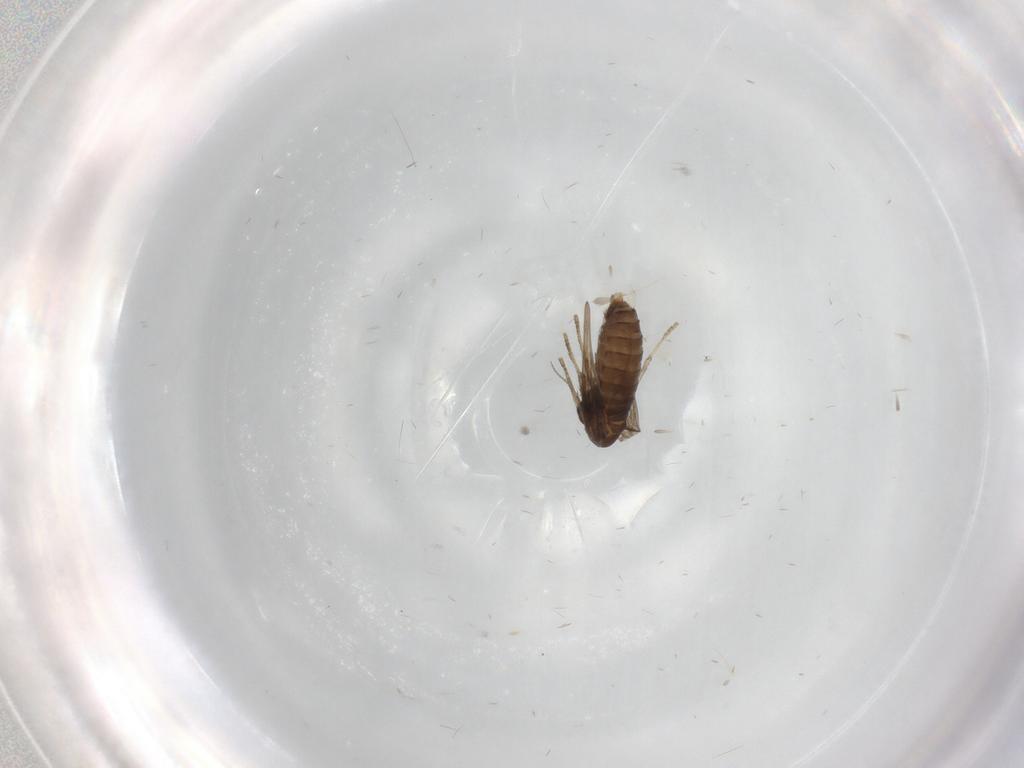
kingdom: Animalia
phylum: Arthropoda
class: Insecta
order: Diptera
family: Psychodidae
